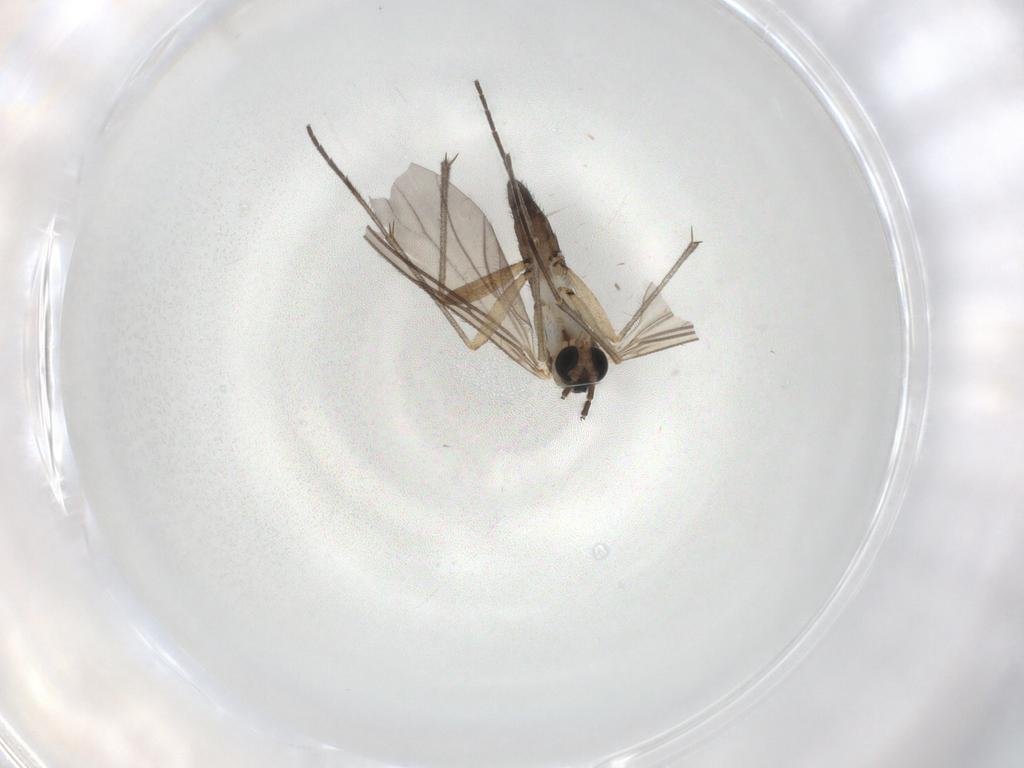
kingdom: Animalia
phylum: Arthropoda
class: Insecta
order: Diptera
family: Sciaridae
